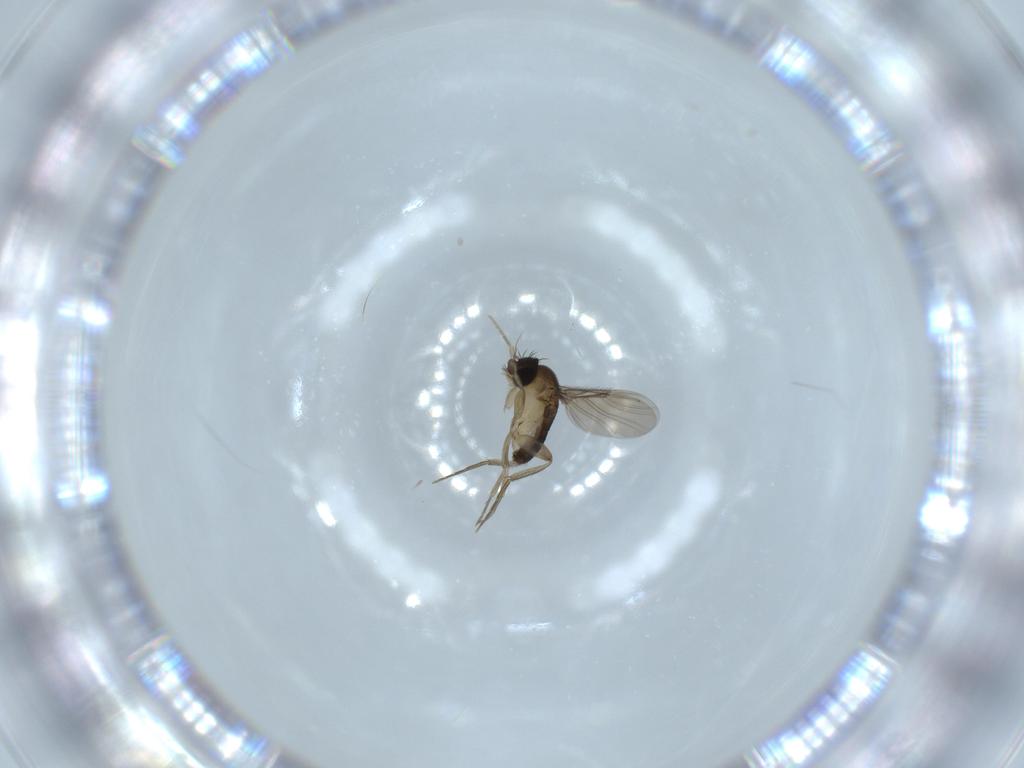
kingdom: Animalia
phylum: Arthropoda
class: Insecta
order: Diptera
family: Phoridae
